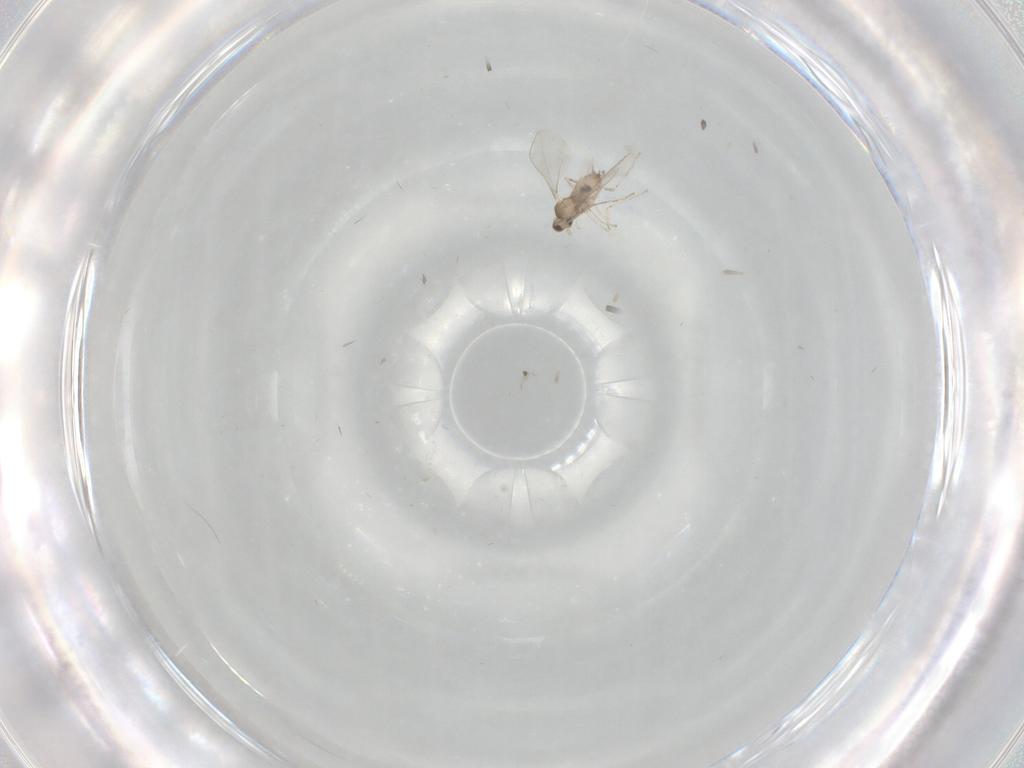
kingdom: Animalia
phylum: Arthropoda
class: Insecta
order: Diptera
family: Cecidomyiidae
